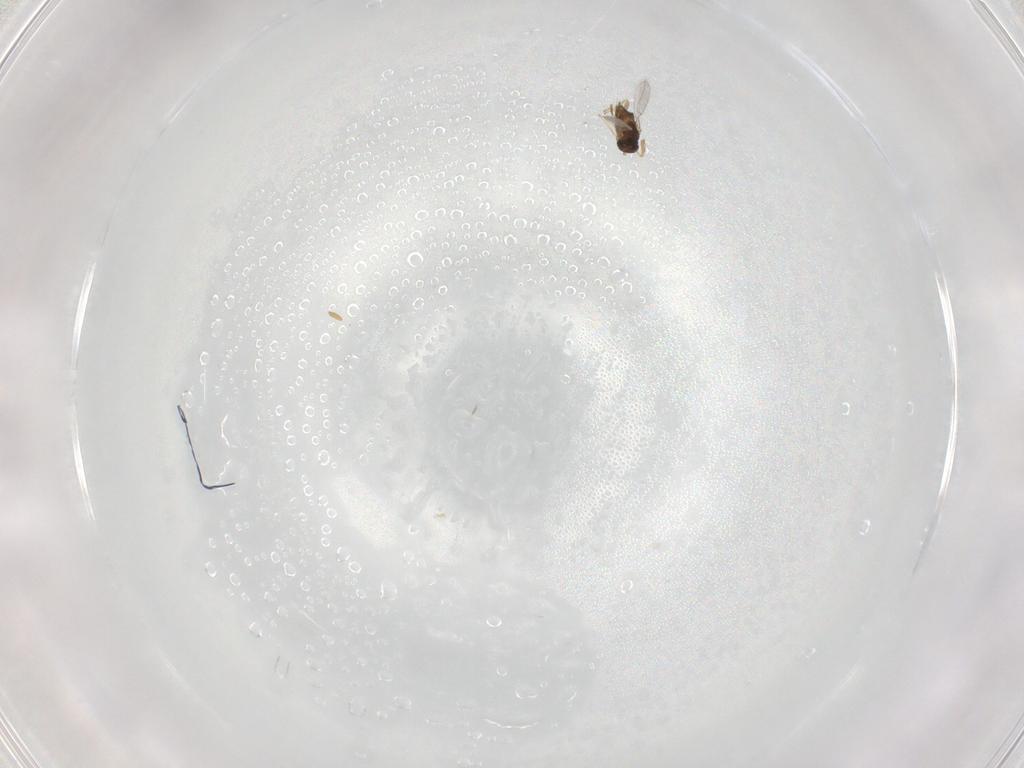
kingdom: Animalia
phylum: Arthropoda
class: Insecta
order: Hymenoptera
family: Encyrtidae
